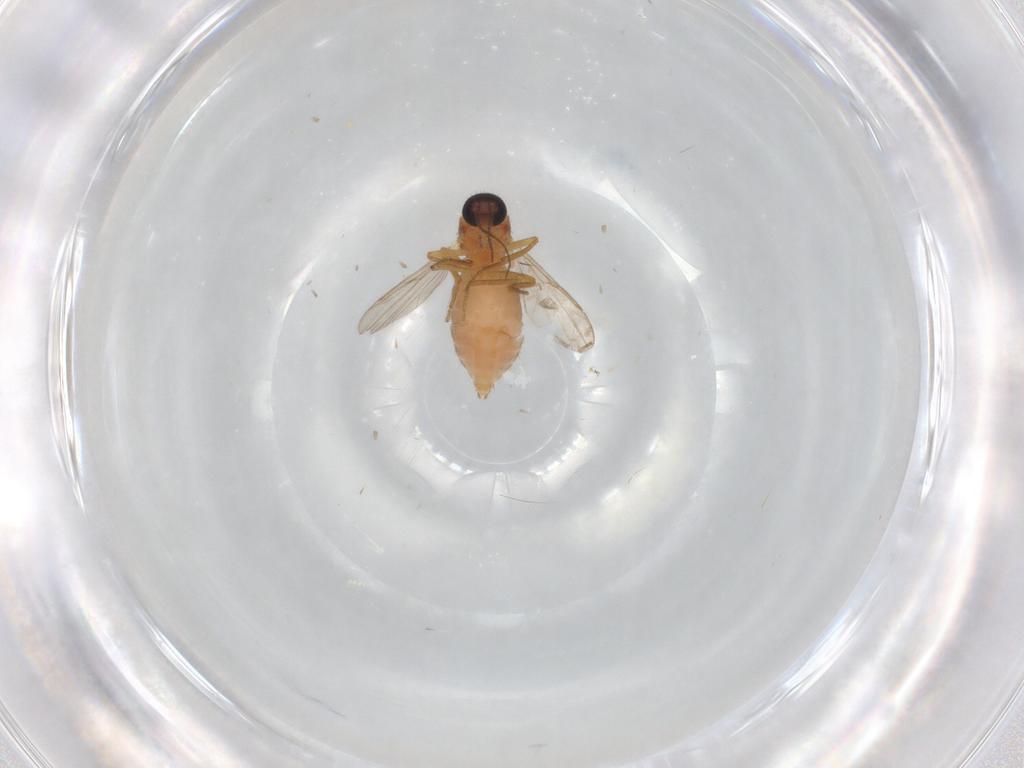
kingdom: Animalia
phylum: Arthropoda
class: Insecta
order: Diptera
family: Ceratopogonidae
